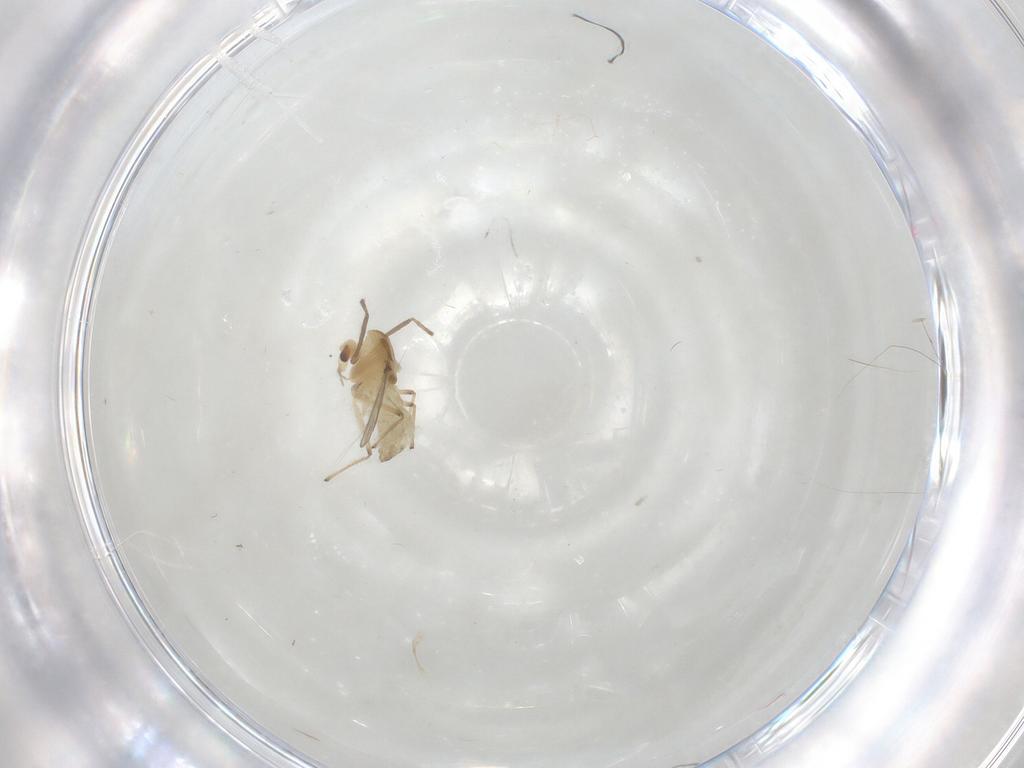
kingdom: Animalia
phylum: Arthropoda
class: Insecta
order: Diptera
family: Chironomidae
